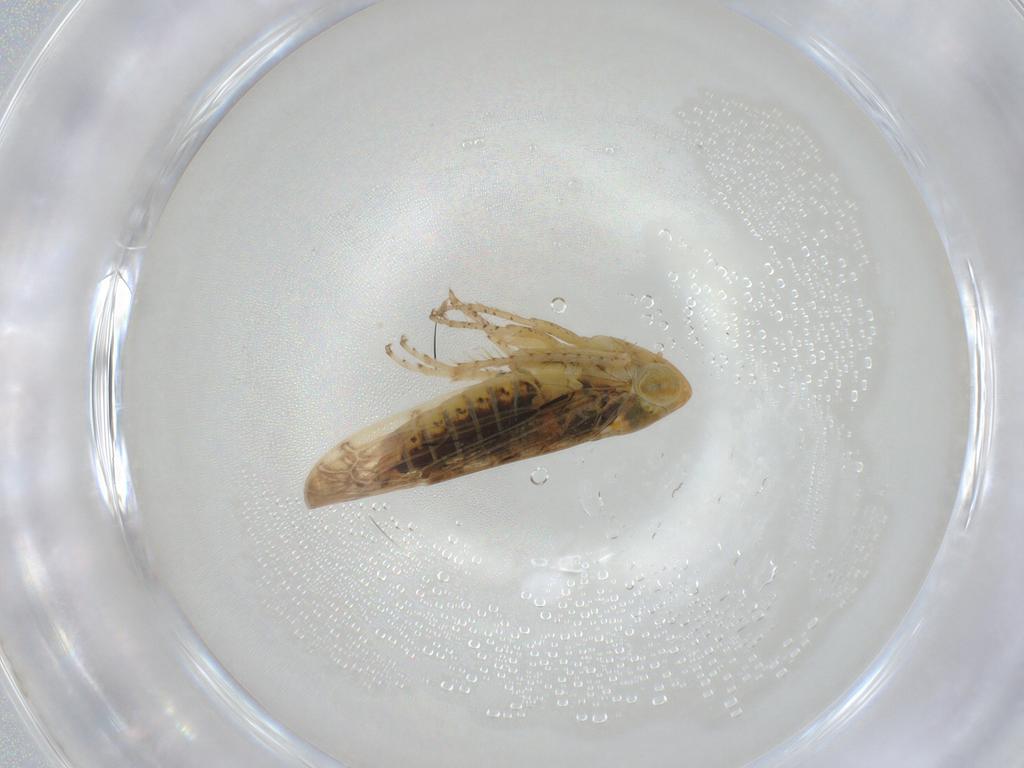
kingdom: Animalia
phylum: Arthropoda
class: Insecta
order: Hemiptera
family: Cicadellidae
